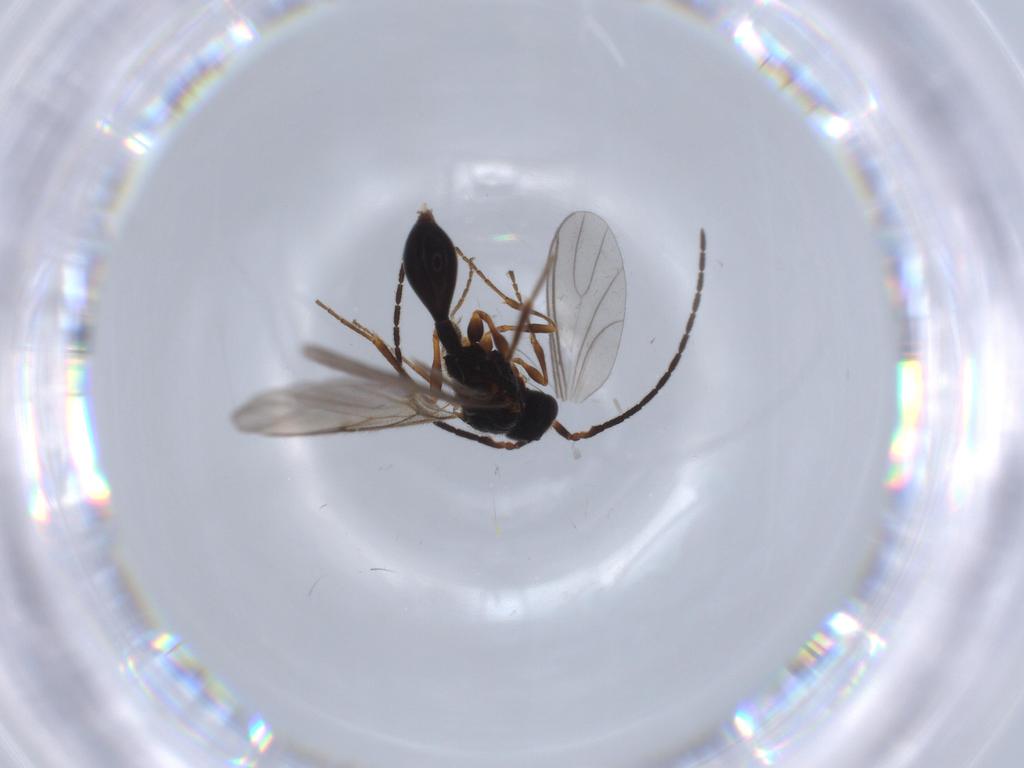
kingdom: Animalia
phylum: Arthropoda
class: Insecta
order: Hymenoptera
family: Diapriidae
